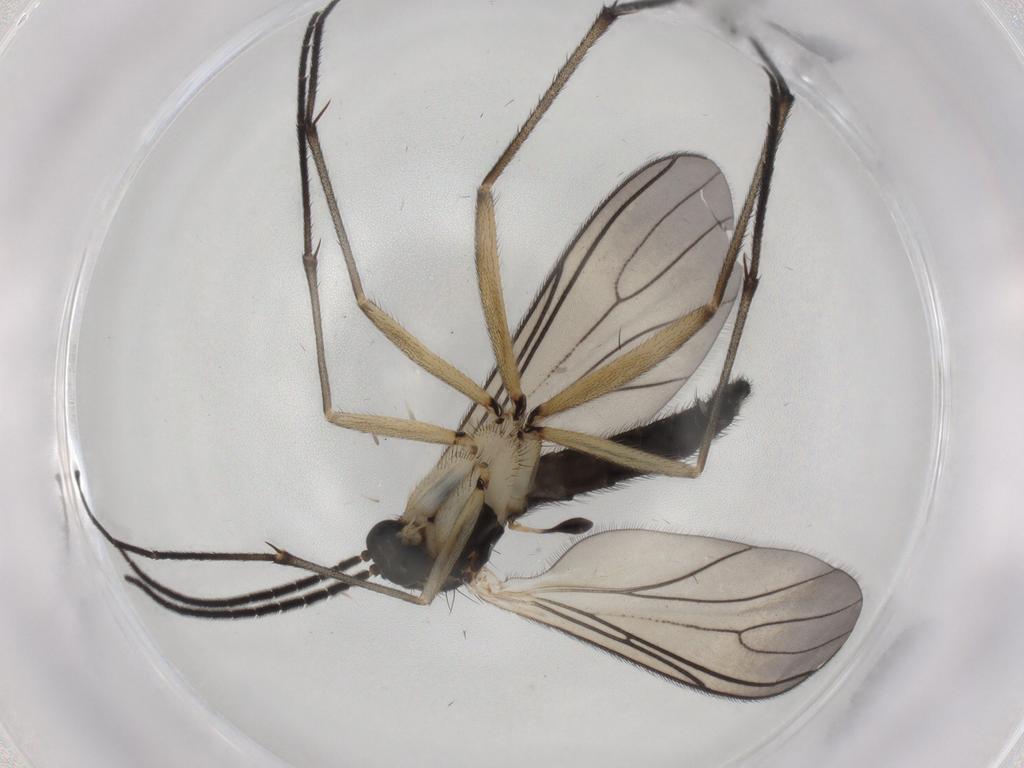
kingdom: Animalia
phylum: Arthropoda
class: Insecta
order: Diptera
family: Sciaridae
